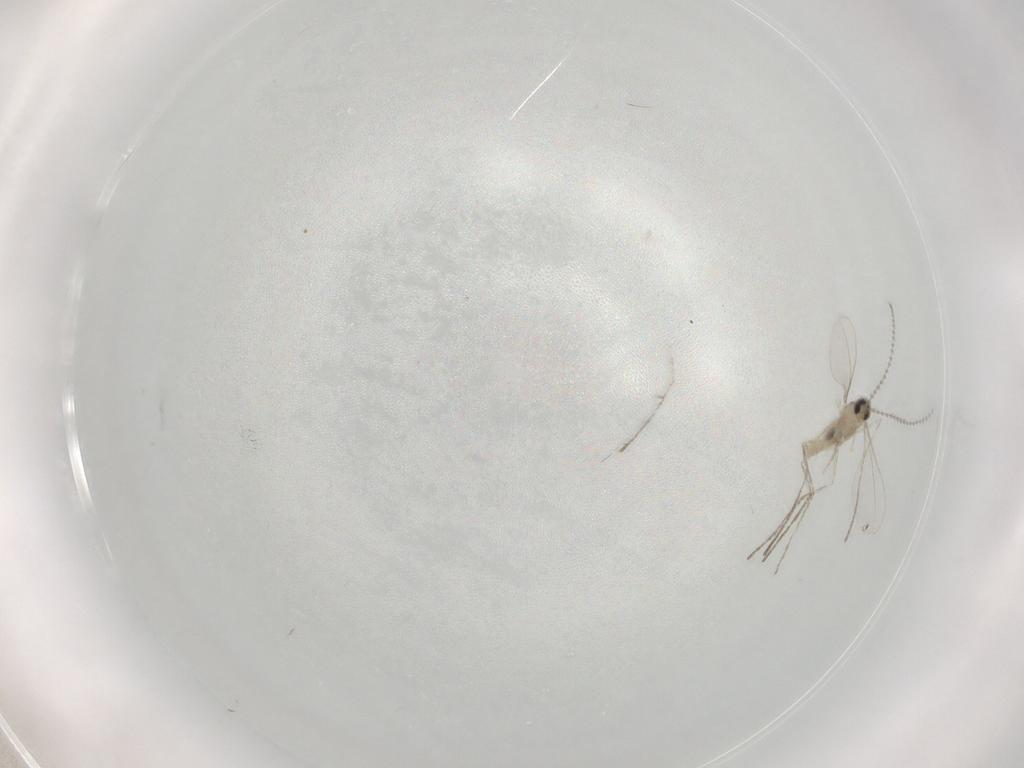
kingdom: Animalia
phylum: Arthropoda
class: Insecta
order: Diptera
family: Cecidomyiidae
